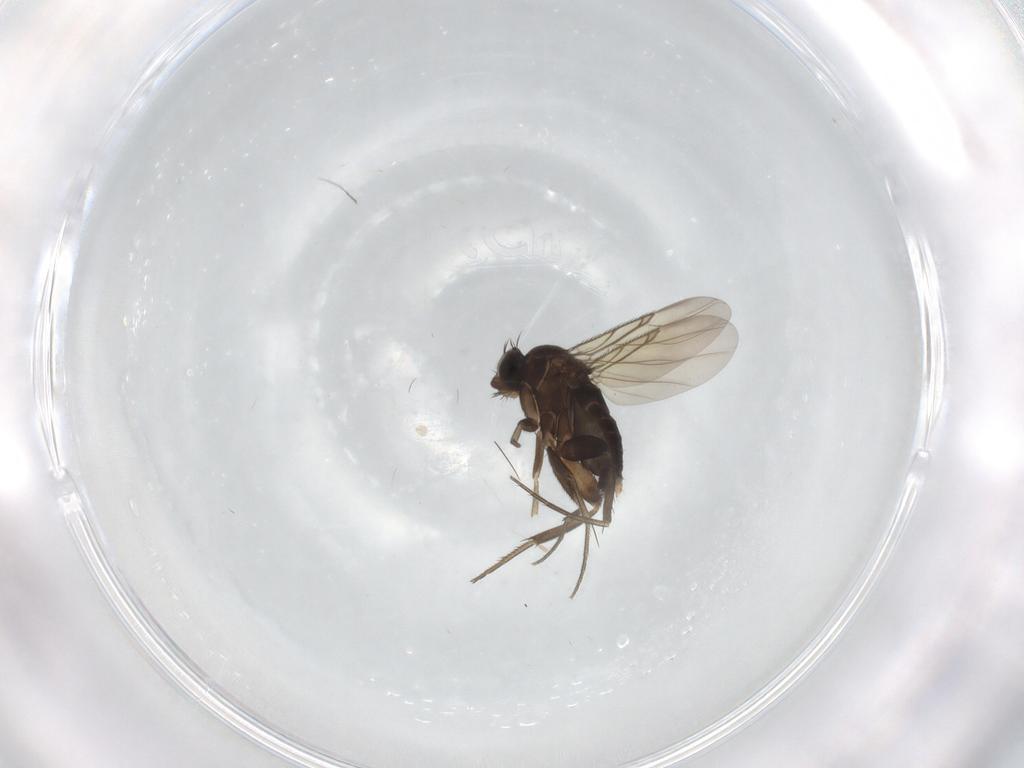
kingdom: Animalia
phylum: Arthropoda
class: Insecta
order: Diptera
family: Phoridae
